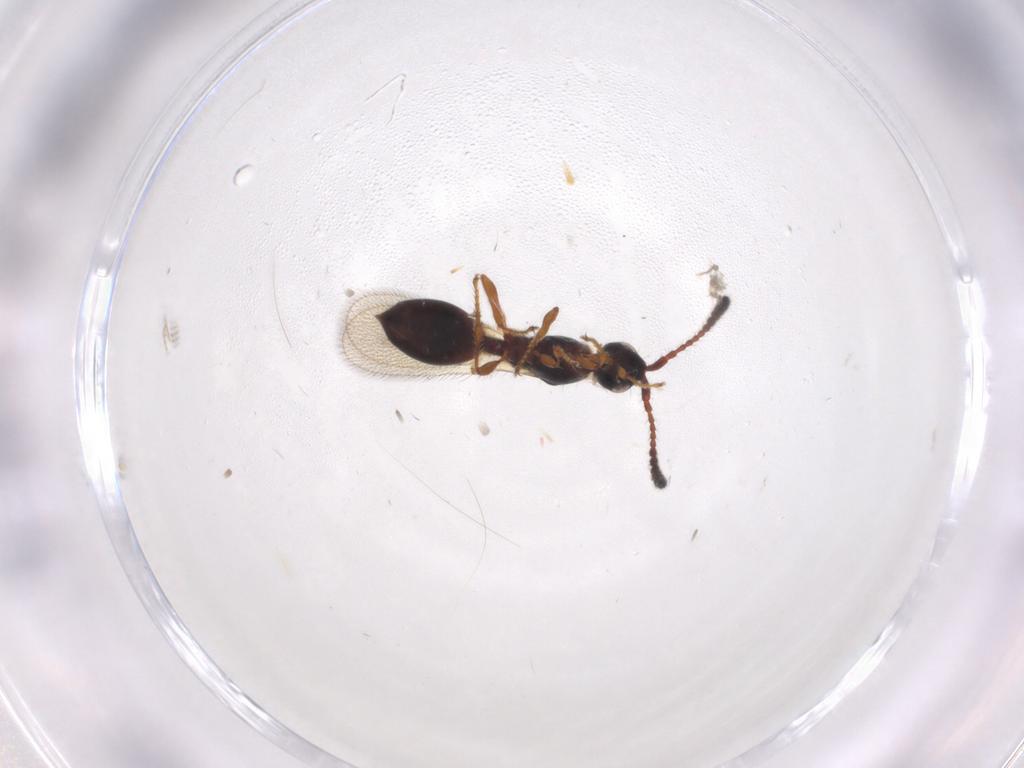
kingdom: Animalia
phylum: Arthropoda
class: Insecta
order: Hymenoptera
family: Diapriidae
